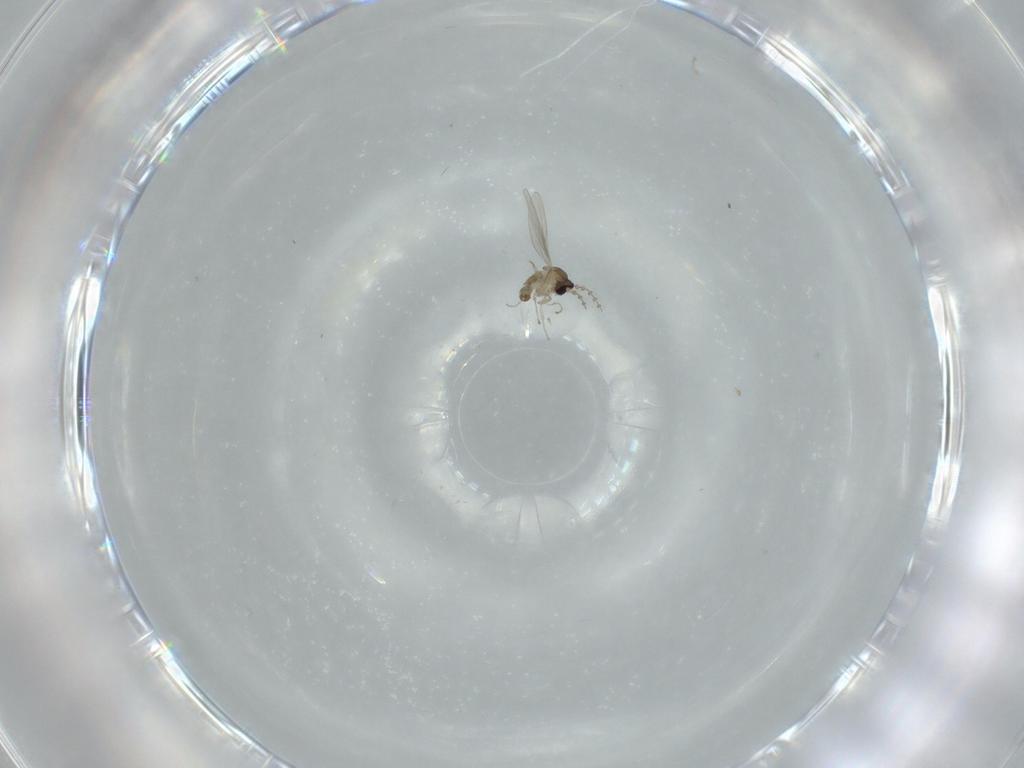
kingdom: Animalia
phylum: Arthropoda
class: Insecta
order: Diptera
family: Cecidomyiidae
